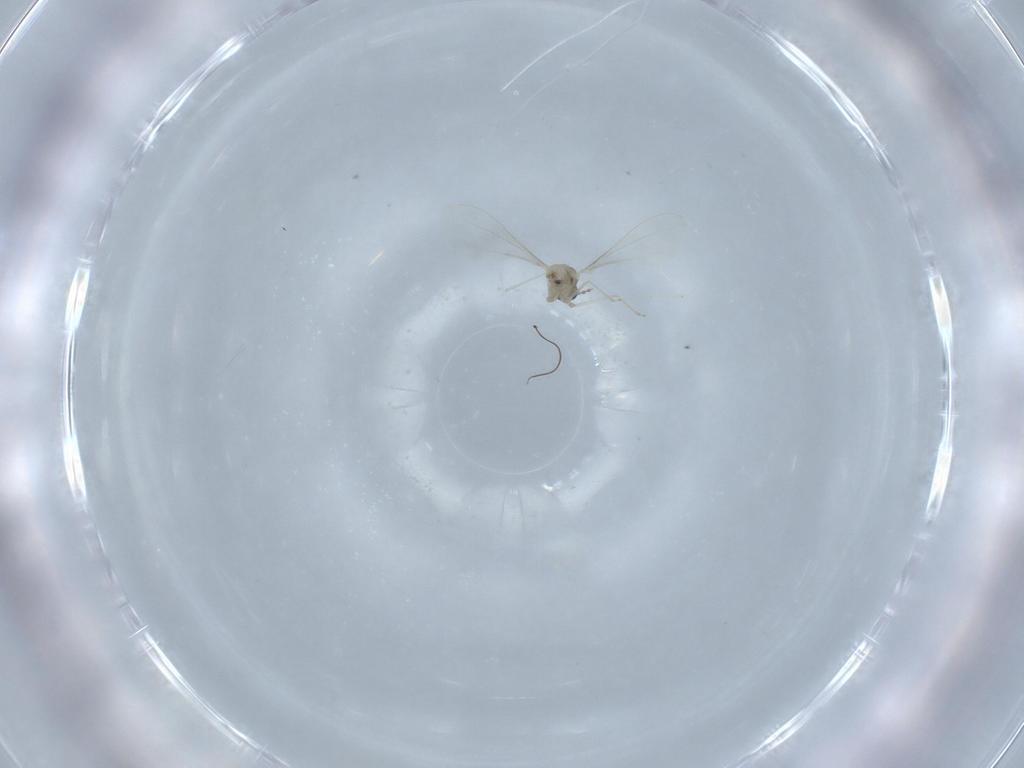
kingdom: Animalia
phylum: Arthropoda
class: Insecta
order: Diptera
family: Cecidomyiidae
